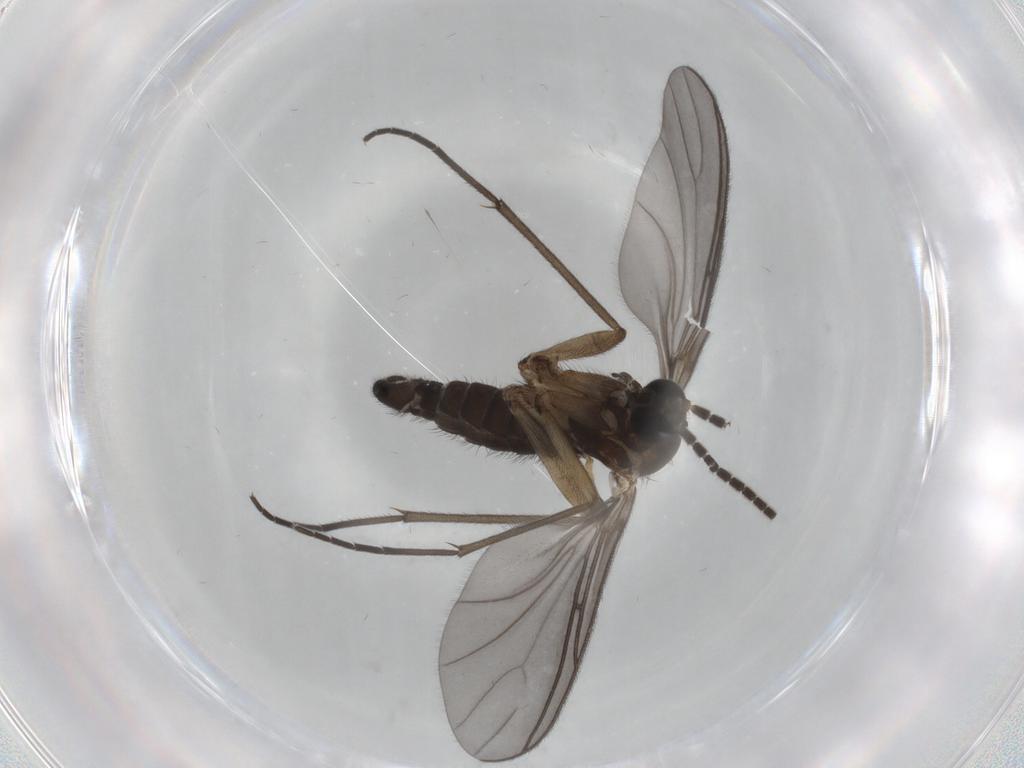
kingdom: Animalia
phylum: Arthropoda
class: Insecta
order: Diptera
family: Sciaridae
